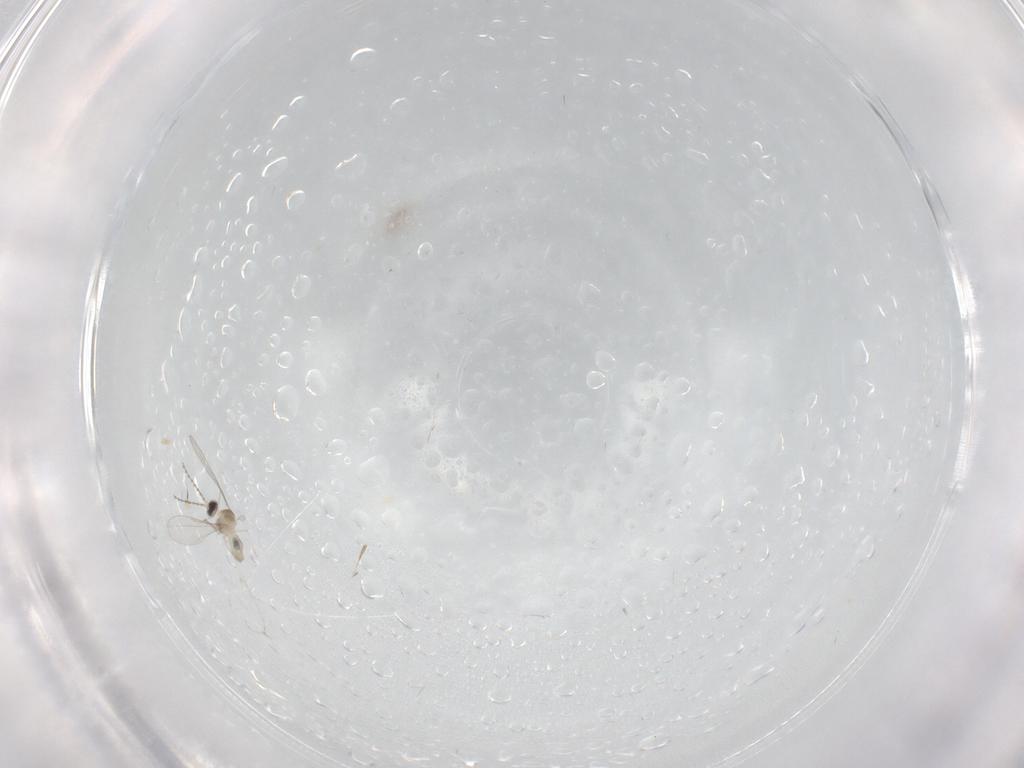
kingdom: Animalia
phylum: Arthropoda
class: Insecta
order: Diptera
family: Cecidomyiidae
